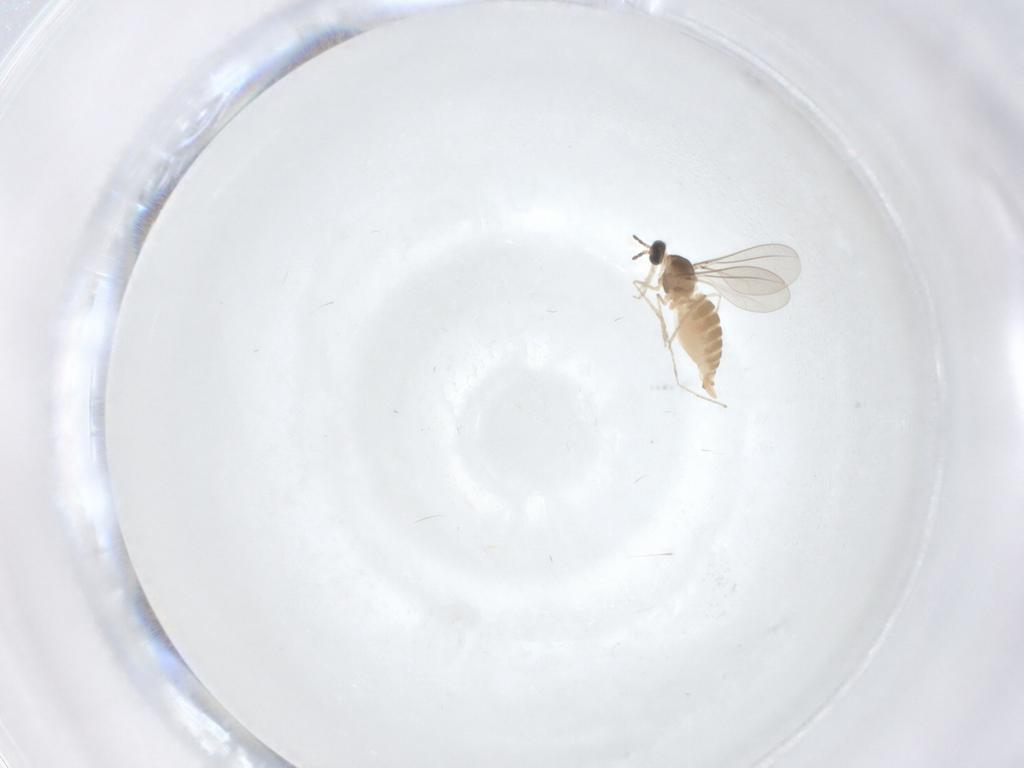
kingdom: Animalia
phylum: Arthropoda
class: Insecta
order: Diptera
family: Cecidomyiidae
